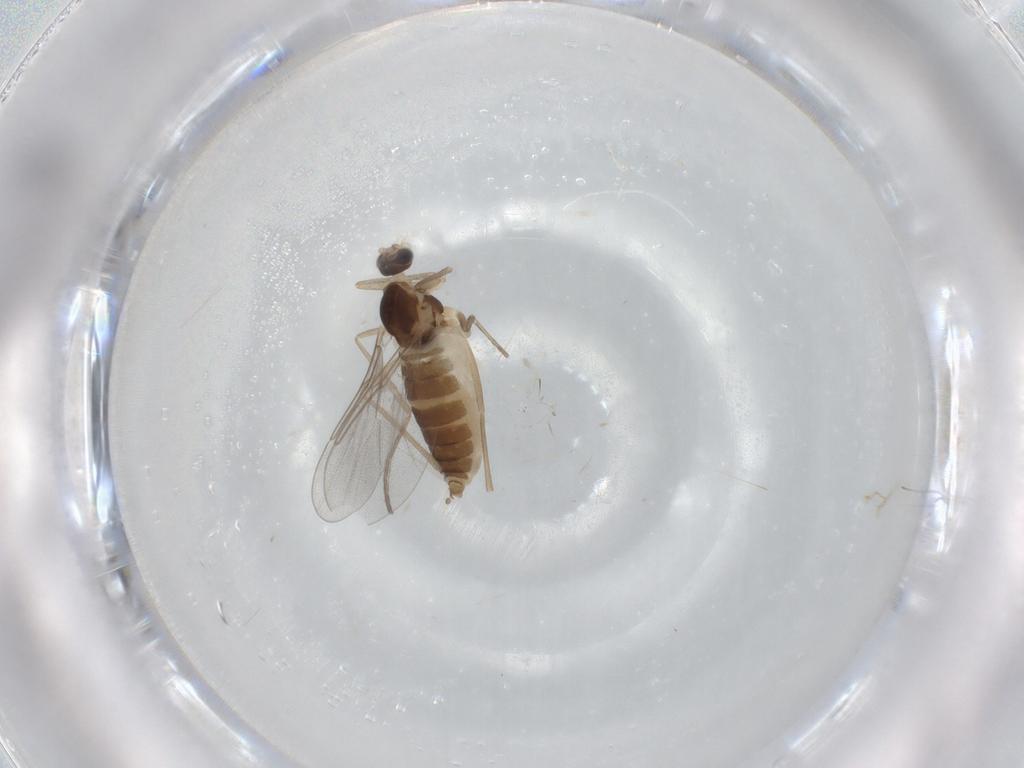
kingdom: Animalia
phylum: Arthropoda
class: Insecta
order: Diptera
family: Cecidomyiidae
